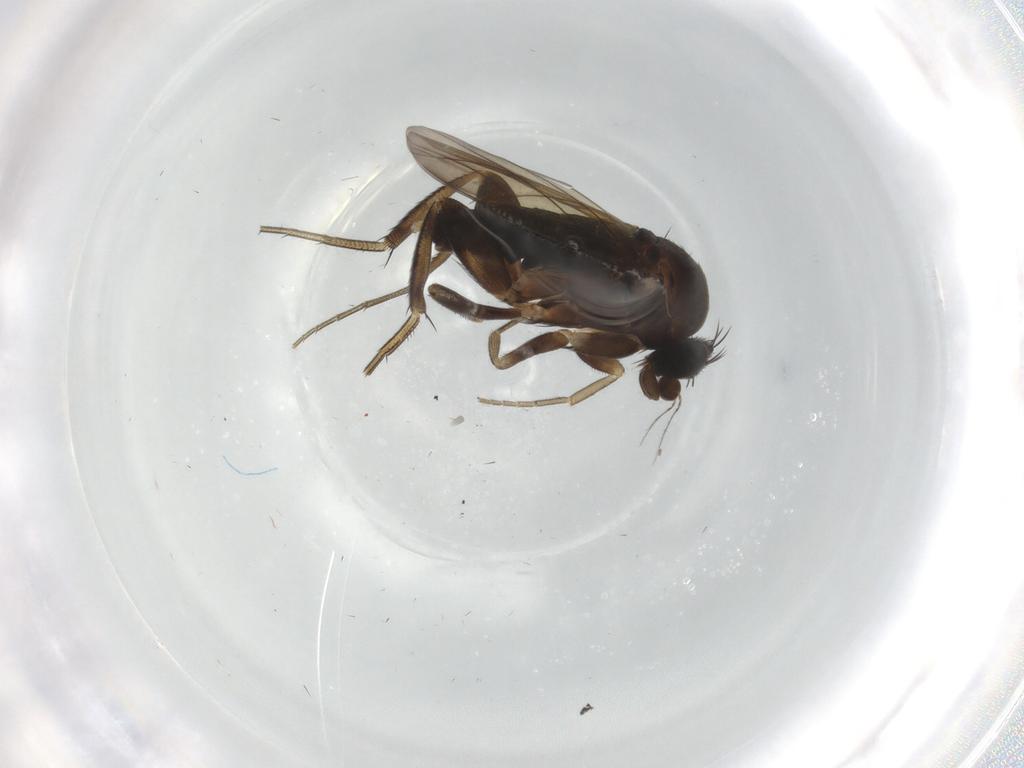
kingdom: Animalia
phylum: Arthropoda
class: Insecta
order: Diptera
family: Phoridae
